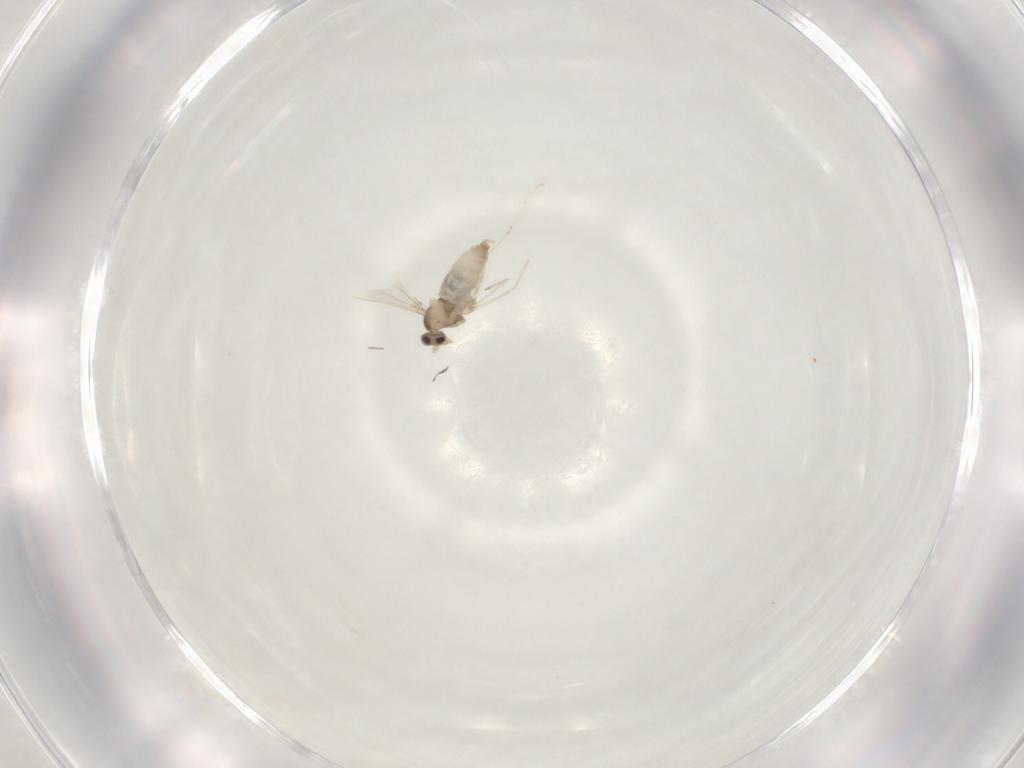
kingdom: Animalia
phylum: Arthropoda
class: Insecta
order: Diptera
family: Cecidomyiidae
